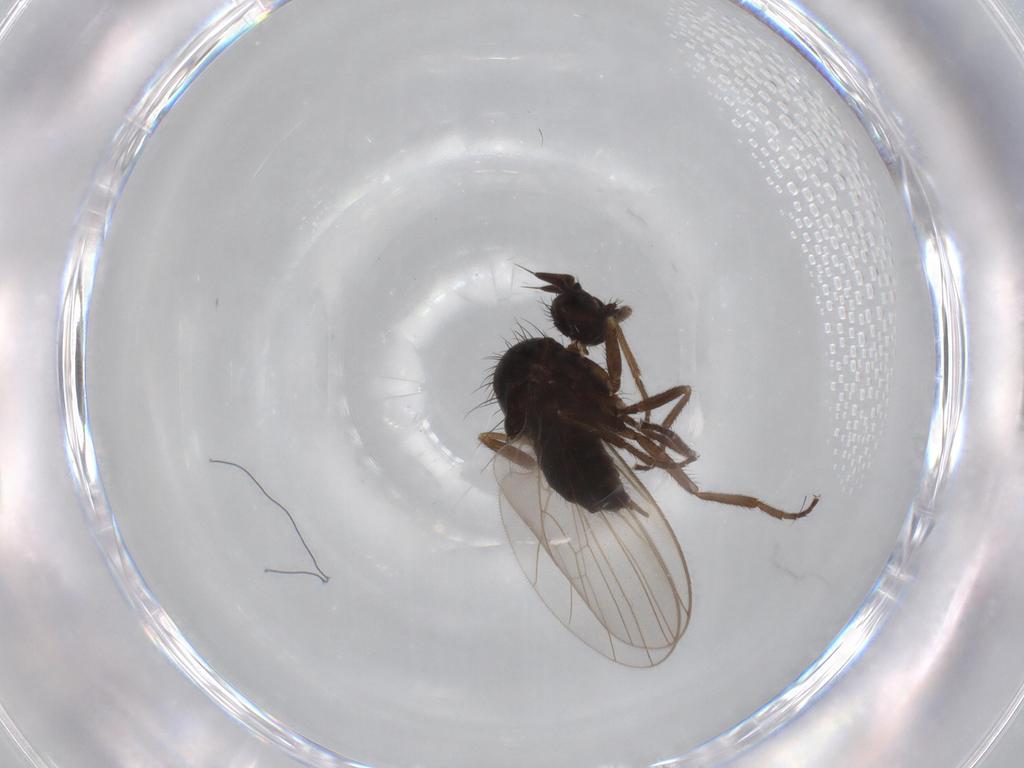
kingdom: Animalia
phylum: Arthropoda
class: Insecta
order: Diptera
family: Dolichopodidae
